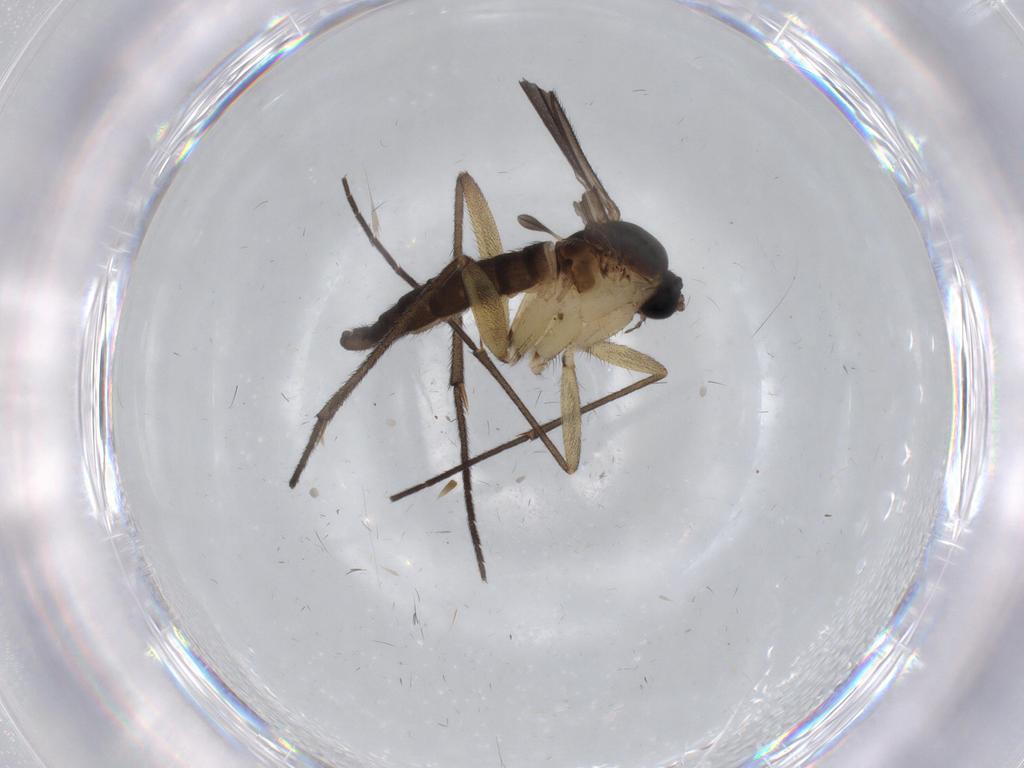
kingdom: Animalia
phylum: Arthropoda
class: Insecta
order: Diptera
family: Sciaridae
